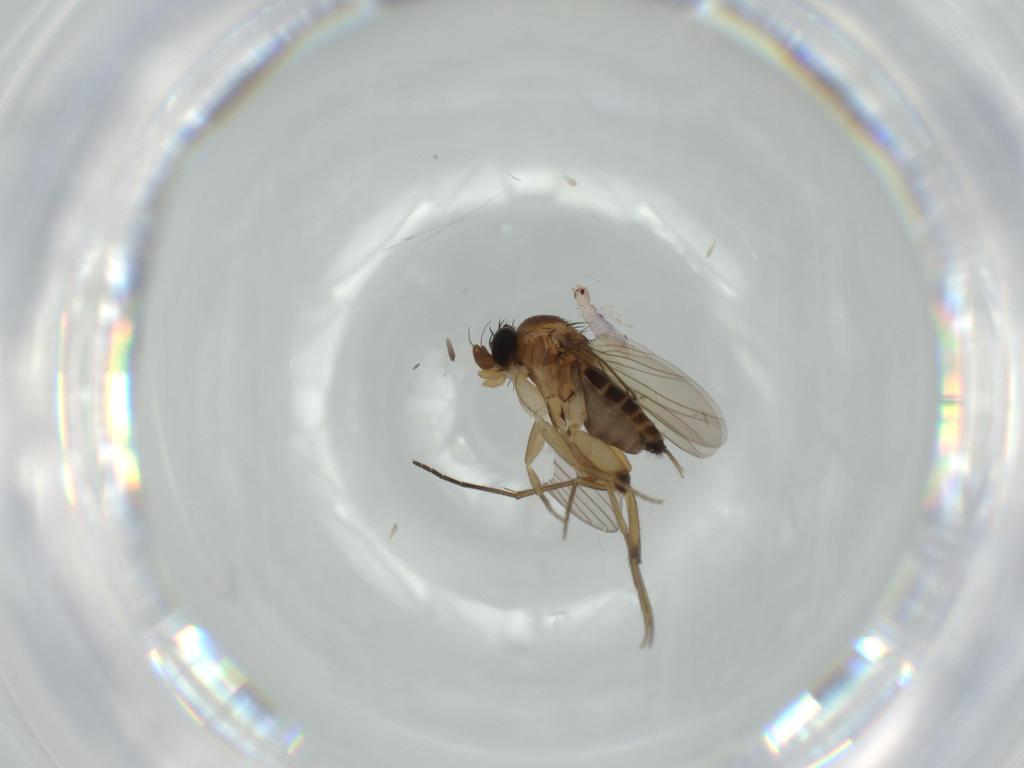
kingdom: Animalia
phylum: Arthropoda
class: Insecta
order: Diptera
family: Phoridae
